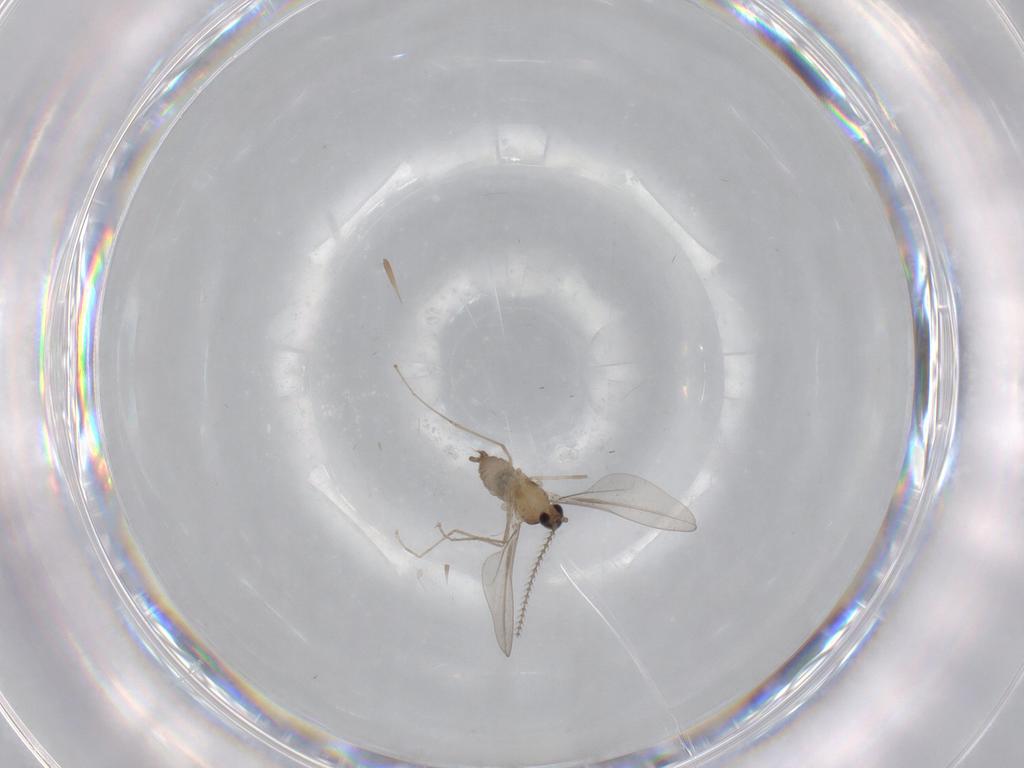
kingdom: Animalia
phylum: Arthropoda
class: Insecta
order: Diptera
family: Cecidomyiidae
